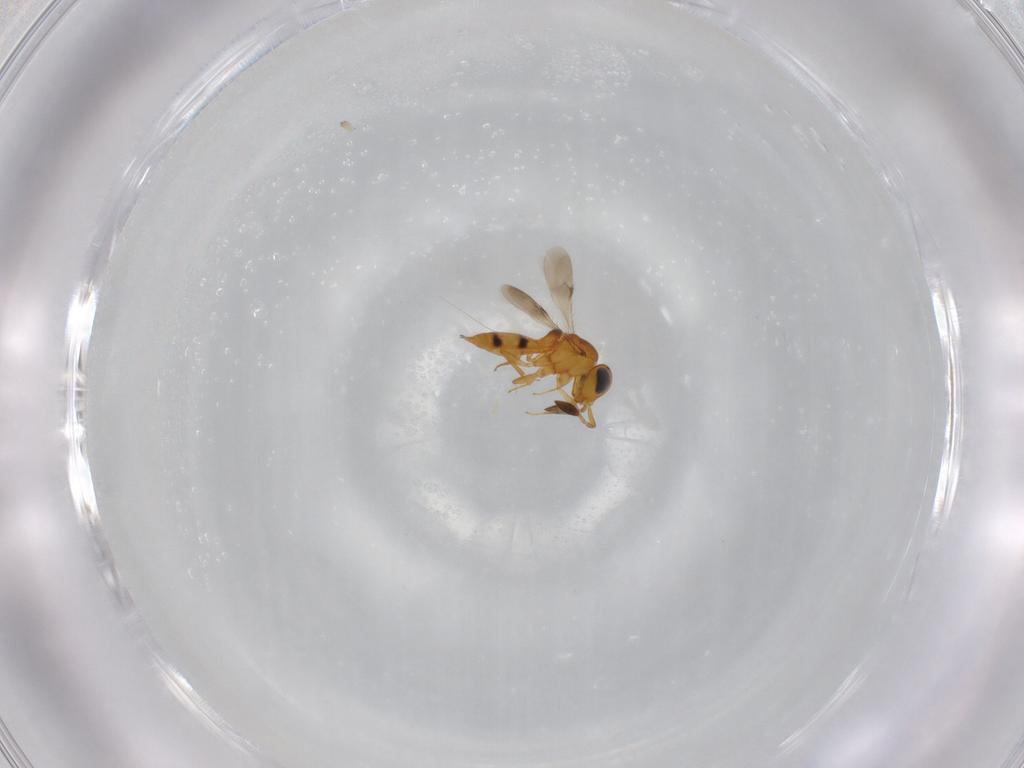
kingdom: Animalia
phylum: Arthropoda
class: Insecta
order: Hymenoptera
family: Scelionidae
